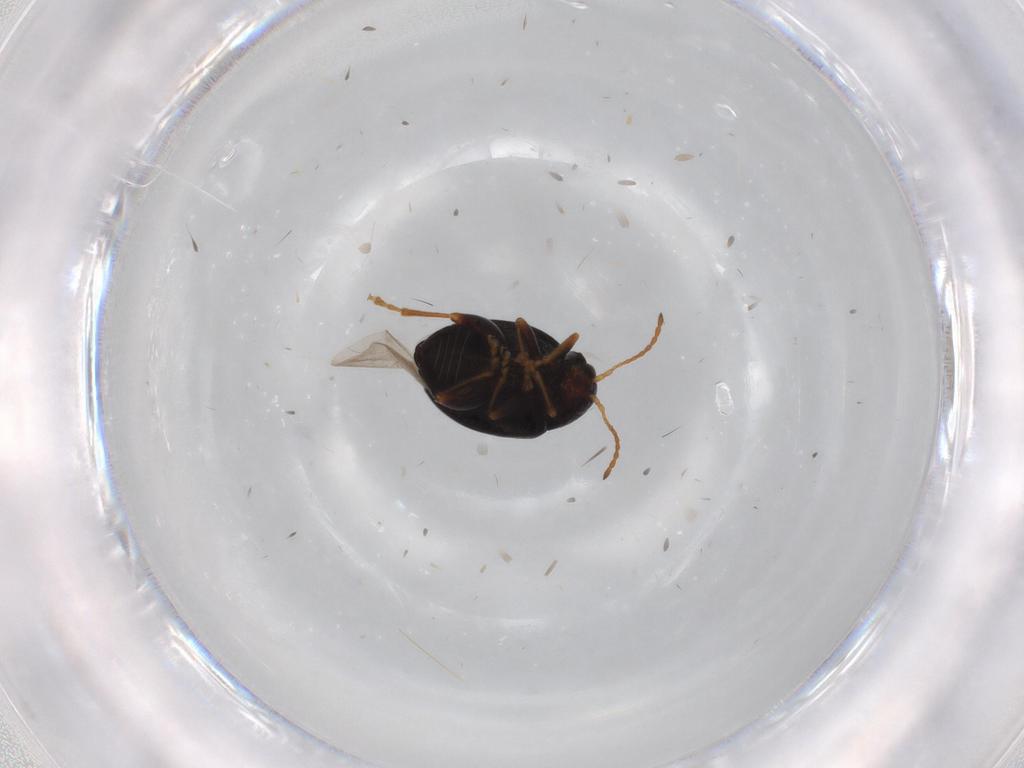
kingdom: Animalia
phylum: Arthropoda
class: Insecta
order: Coleoptera
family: Chrysomelidae
